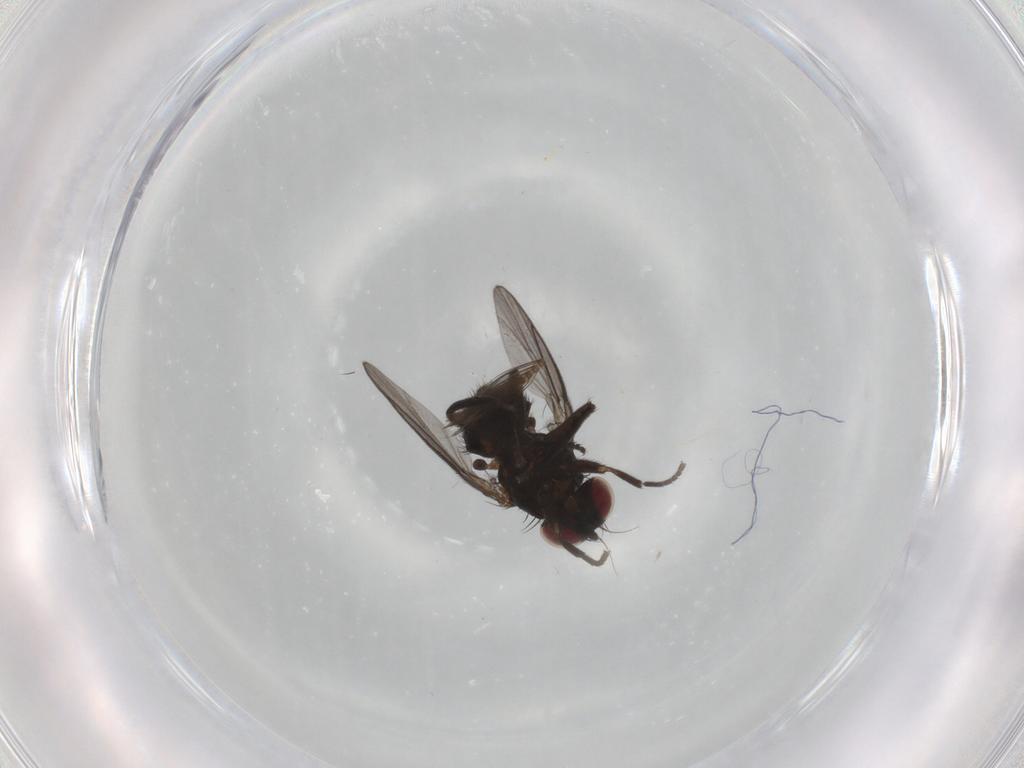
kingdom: Animalia
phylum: Arthropoda
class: Insecta
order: Diptera
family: Agromyzidae
